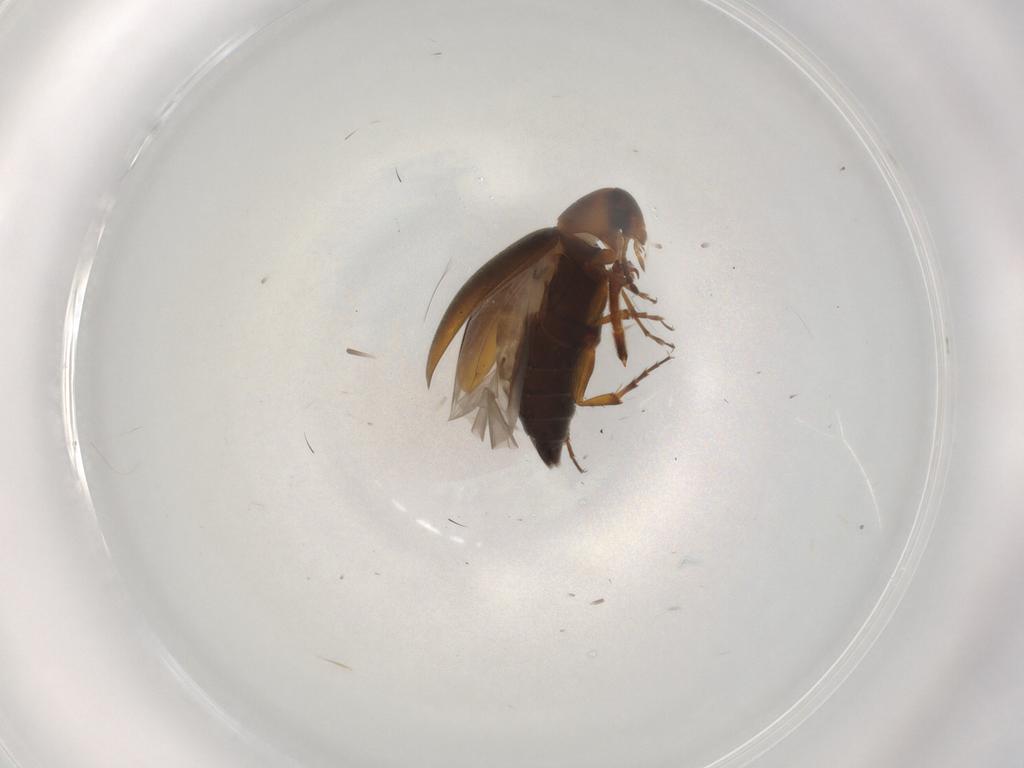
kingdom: Animalia
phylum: Arthropoda
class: Insecta
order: Coleoptera
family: Scraptiidae
